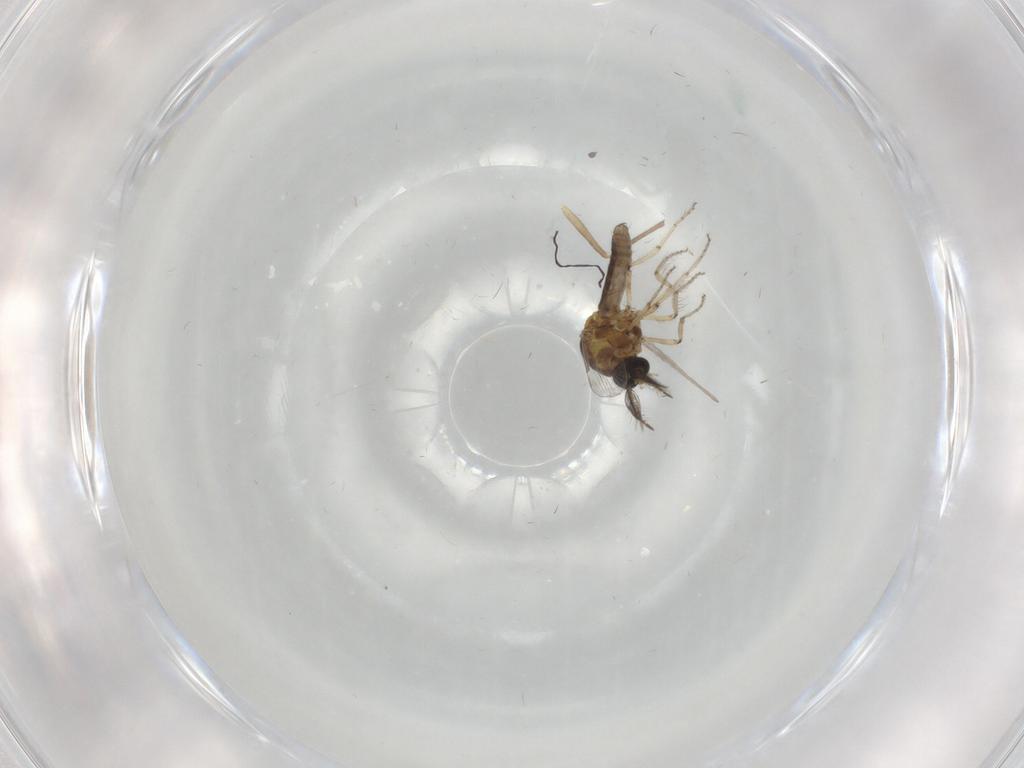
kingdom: Animalia
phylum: Arthropoda
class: Insecta
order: Diptera
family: Ceratopogonidae
